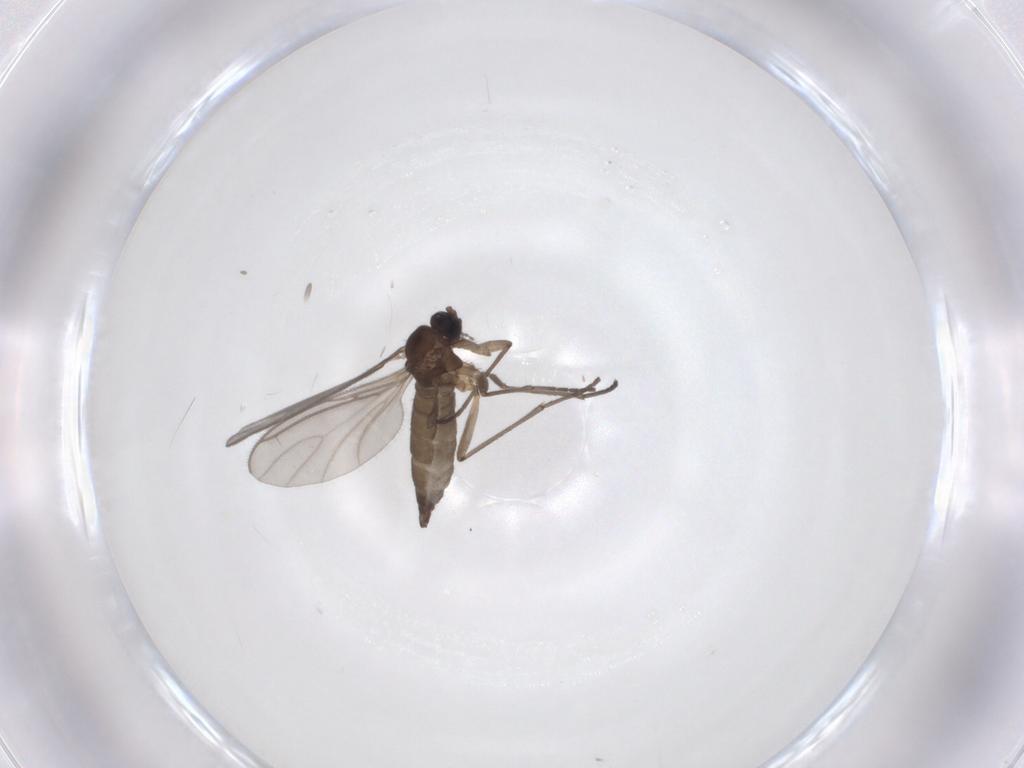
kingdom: Animalia
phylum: Arthropoda
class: Insecta
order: Diptera
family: Sciaridae
